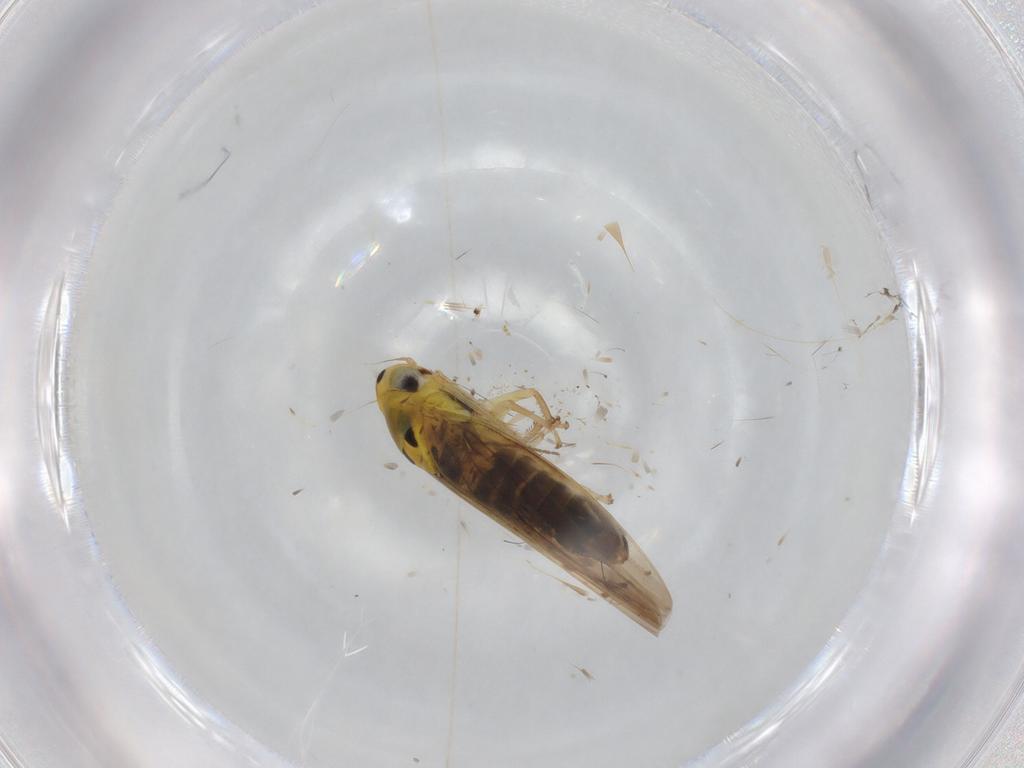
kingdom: Animalia
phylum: Arthropoda
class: Insecta
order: Hemiptera
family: Cicadellidae
